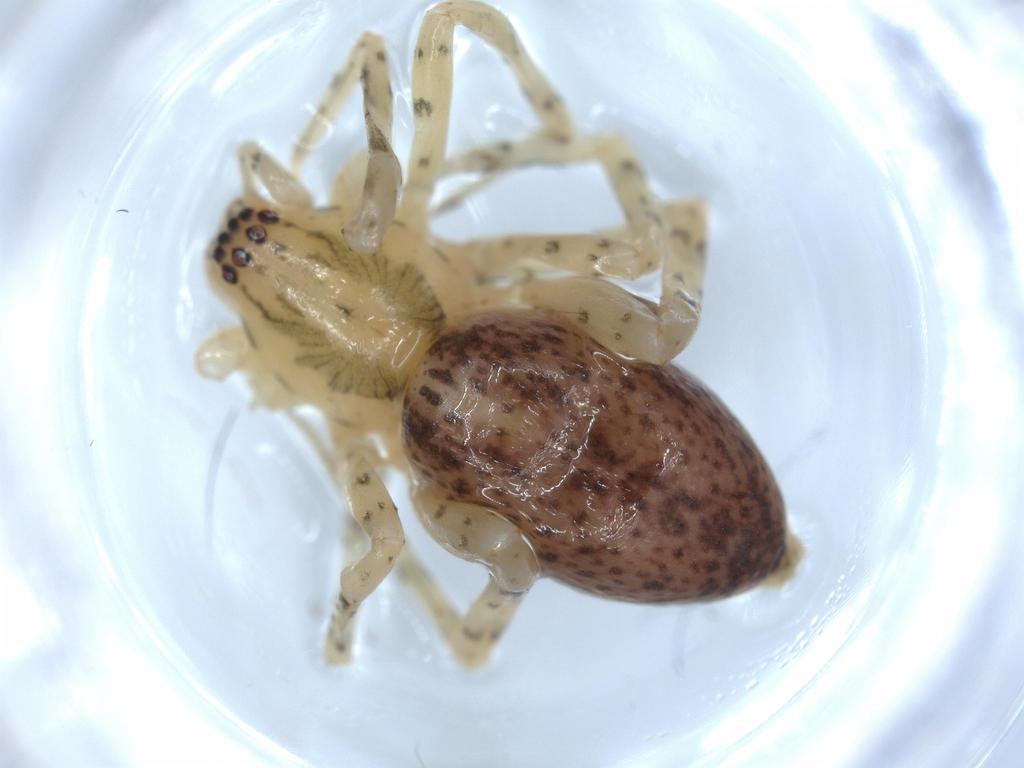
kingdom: Animalia
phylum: Arthropoda
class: Arachnida
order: Araneae
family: Anyphaenidae
